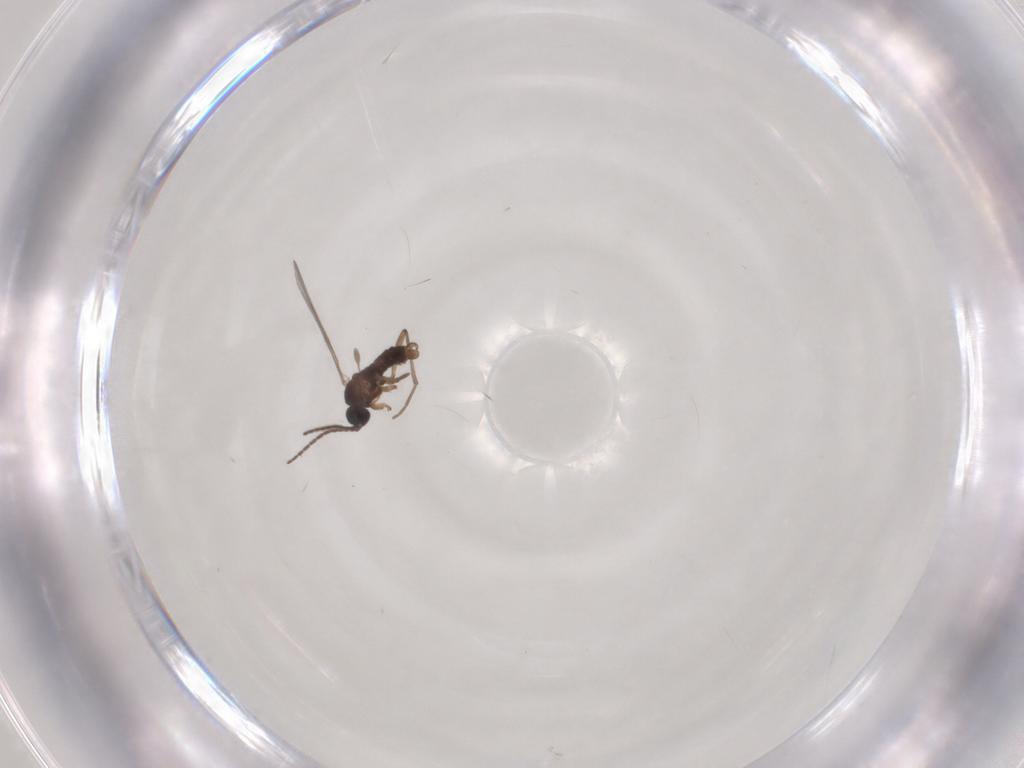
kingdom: Animalia
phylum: Arthropoda
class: Insecta
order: Diptera
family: Sciaridae
